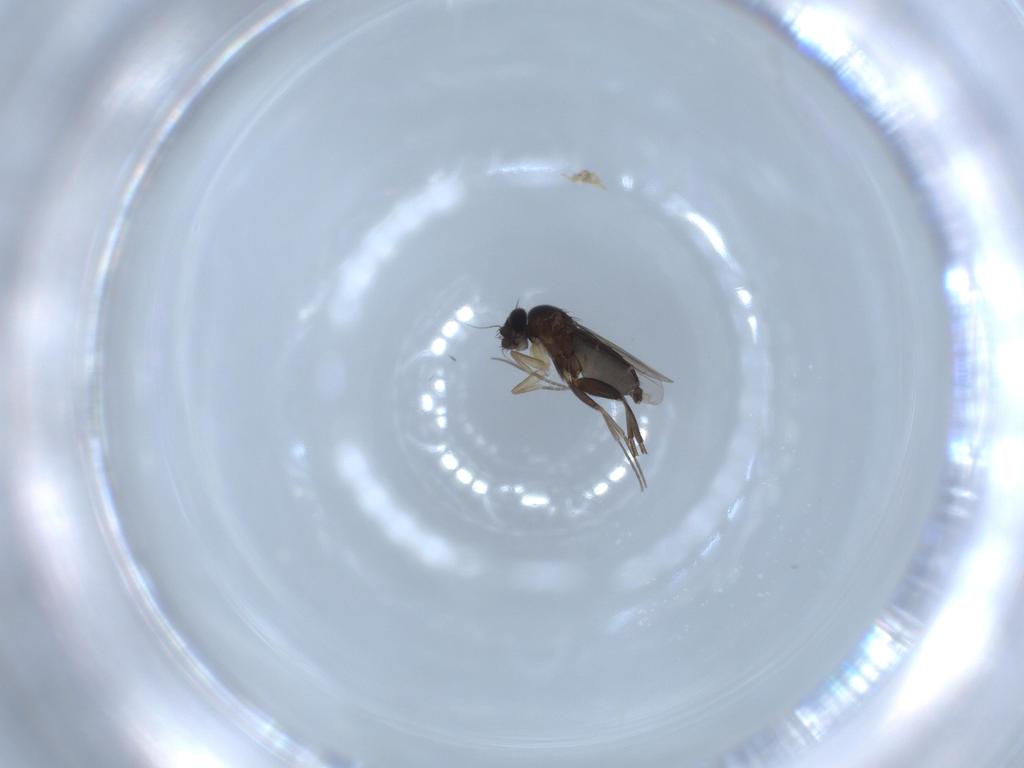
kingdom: Animalia
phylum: Arthropoda
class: Insecta
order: Diptera
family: Phoridae
